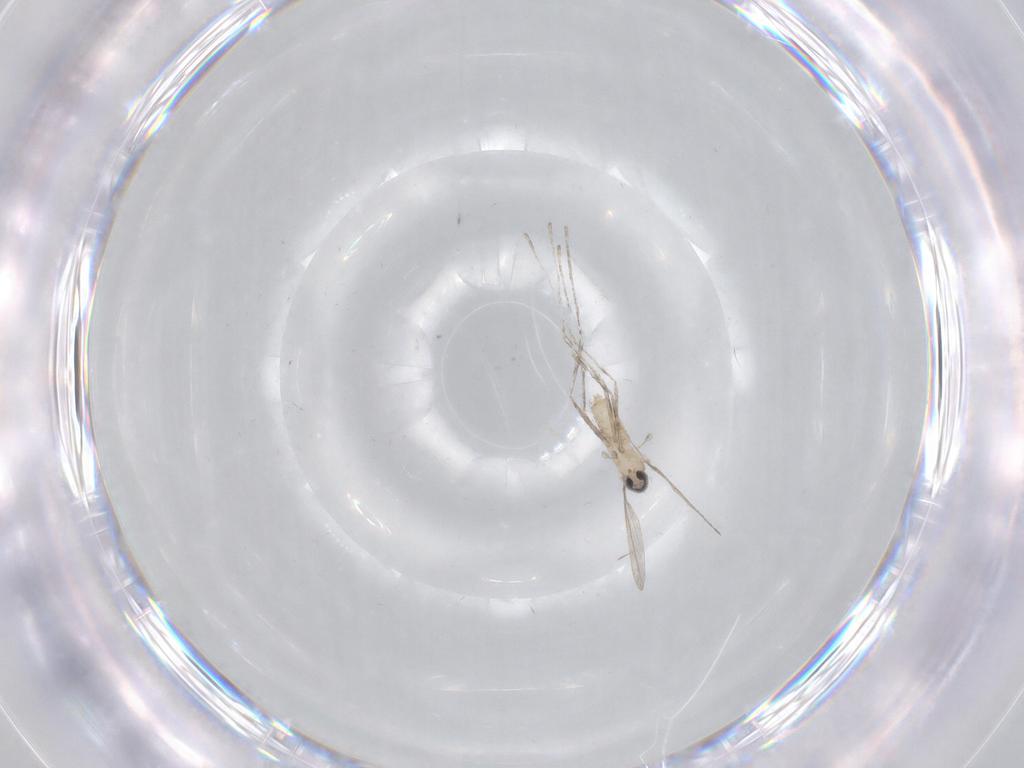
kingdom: Animalia
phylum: Arthropoda
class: Insecta
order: Diptera
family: Cecidomyiidae
